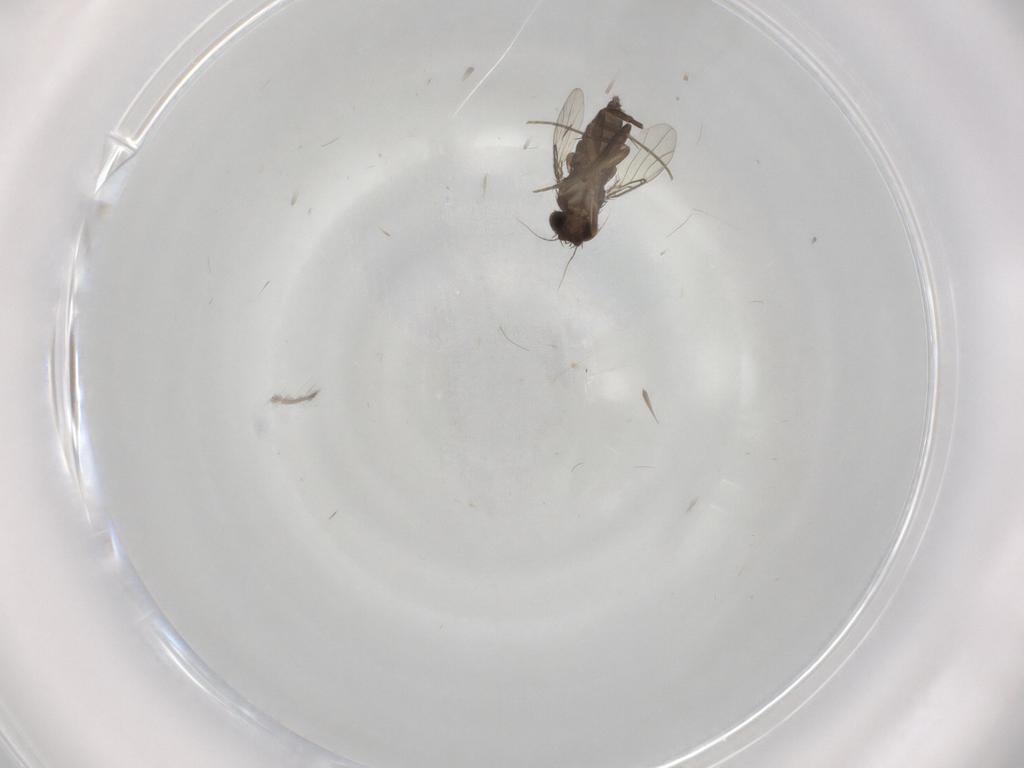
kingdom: Animalia
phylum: Arthropoda
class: Insecta
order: Diptera
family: Phoridae
